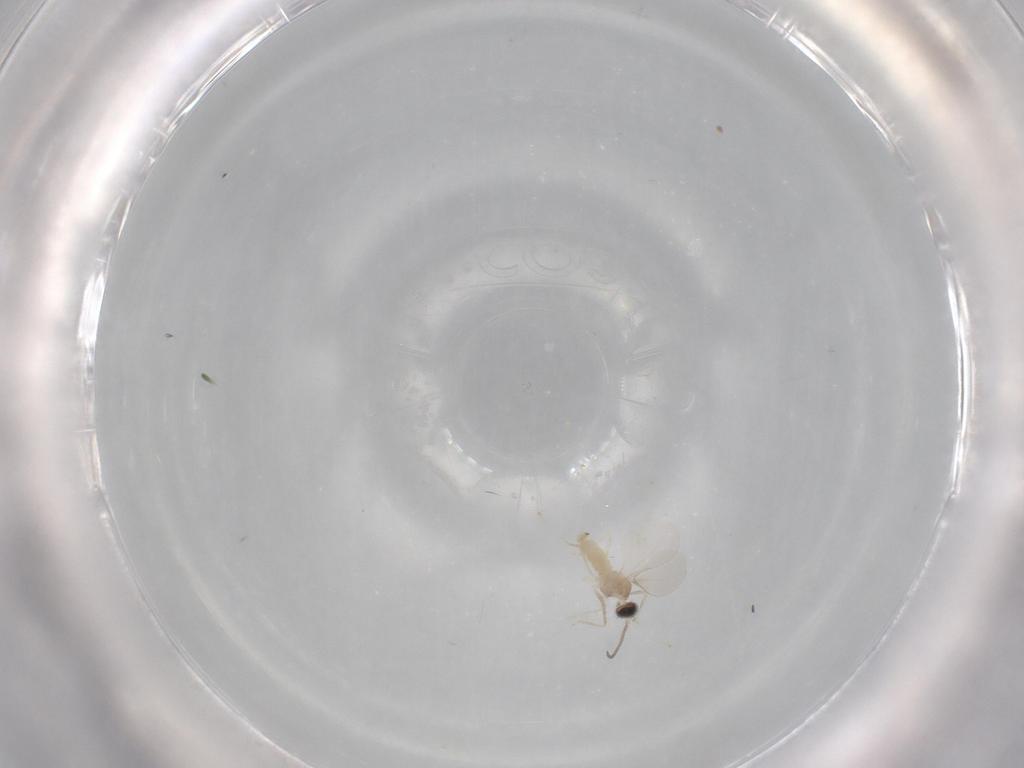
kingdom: Animalia
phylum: Arthropoda
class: Insecta
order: Diptera
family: Cecidomyiidae
